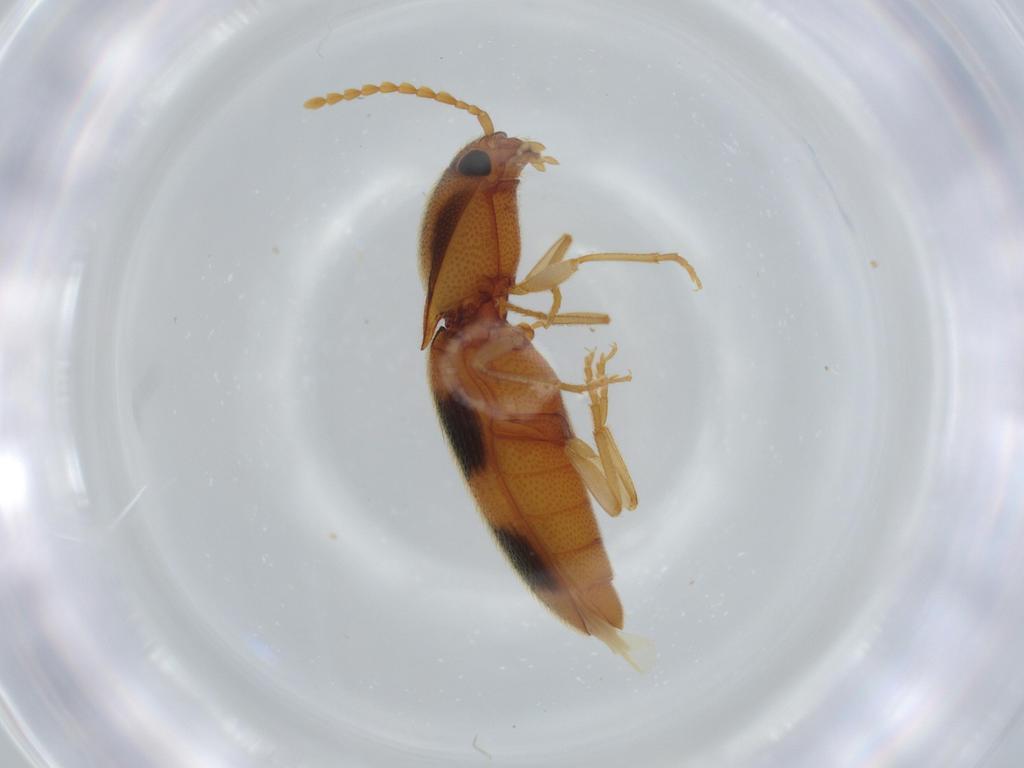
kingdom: Animalia
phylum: Arthropoda
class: Insecta
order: Coleoptera
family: Elateridae
